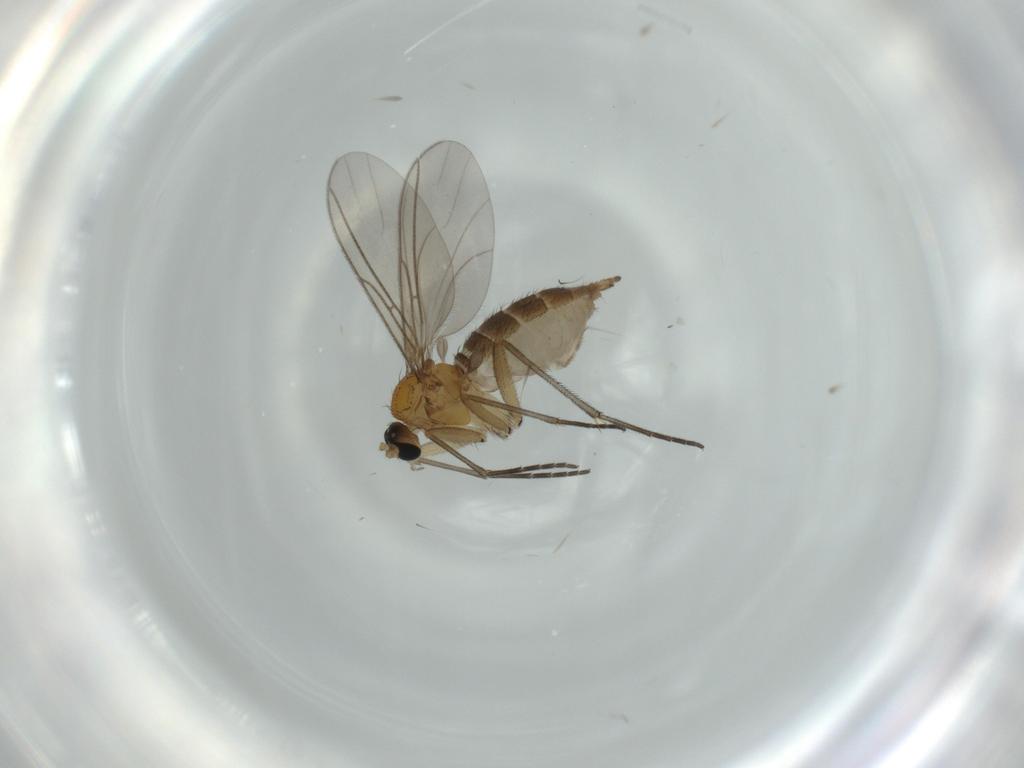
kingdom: Animalia
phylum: Arthropoda
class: Insecta
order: Diptera
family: Sciaridae
